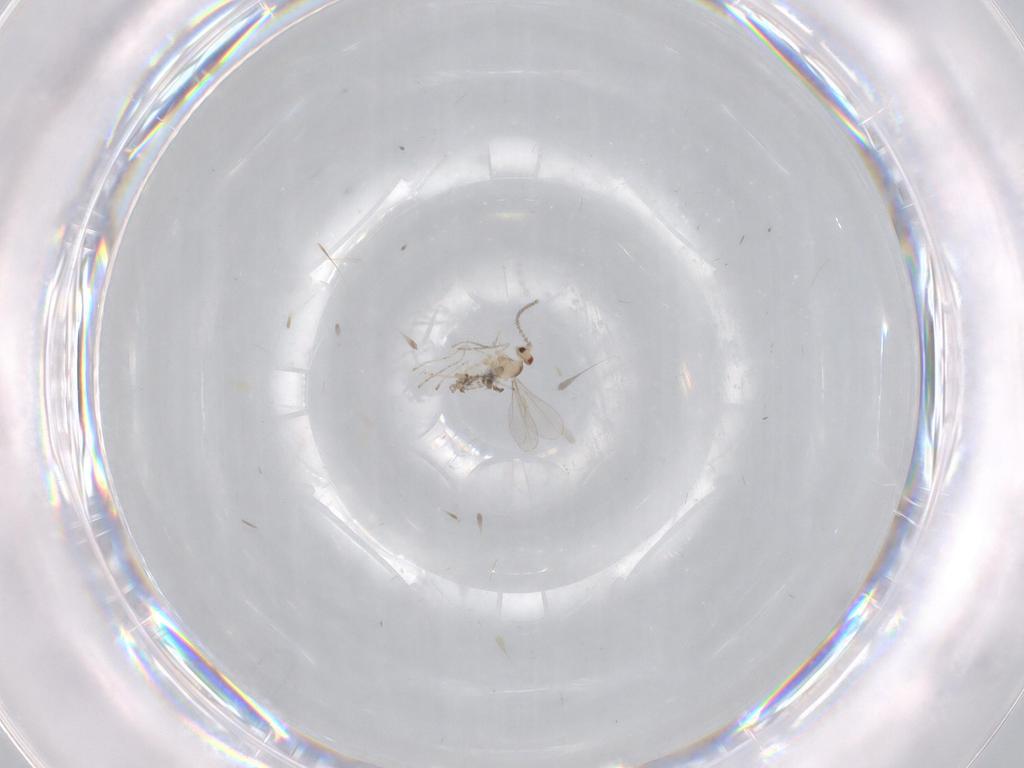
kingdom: Animalia
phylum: Arthropoda
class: Insecta
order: Diptera
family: Cecidomyiidae
